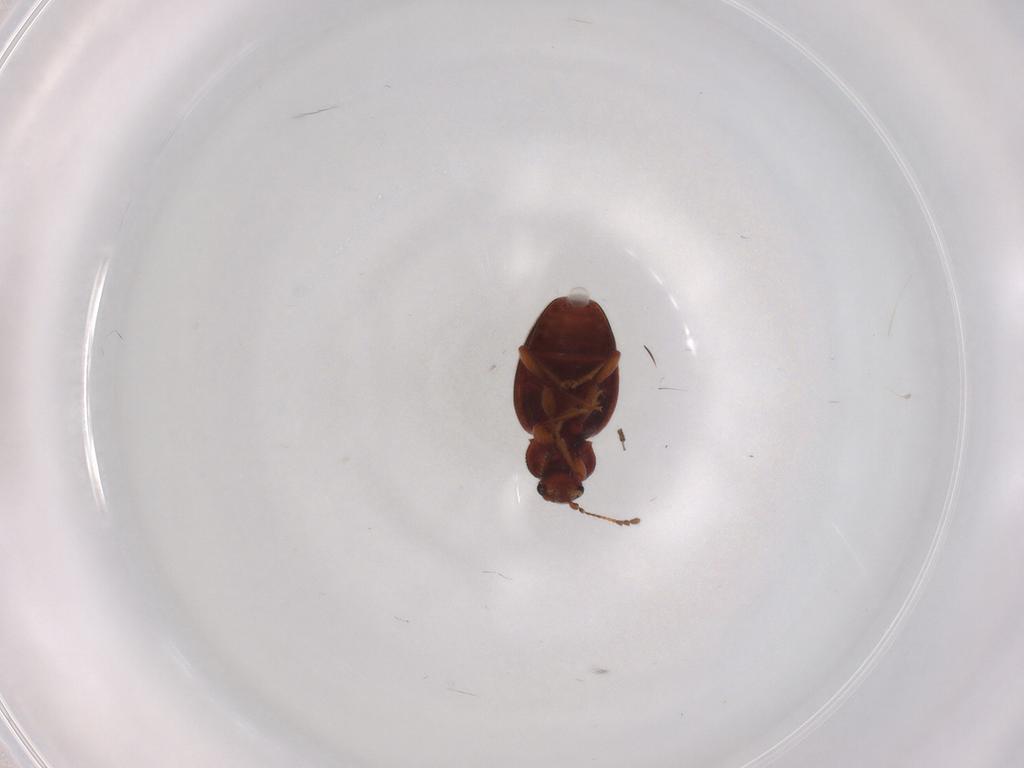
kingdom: Animalia
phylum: Arthropoda
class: Insecta
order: Coleoptera
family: Latridiidae
